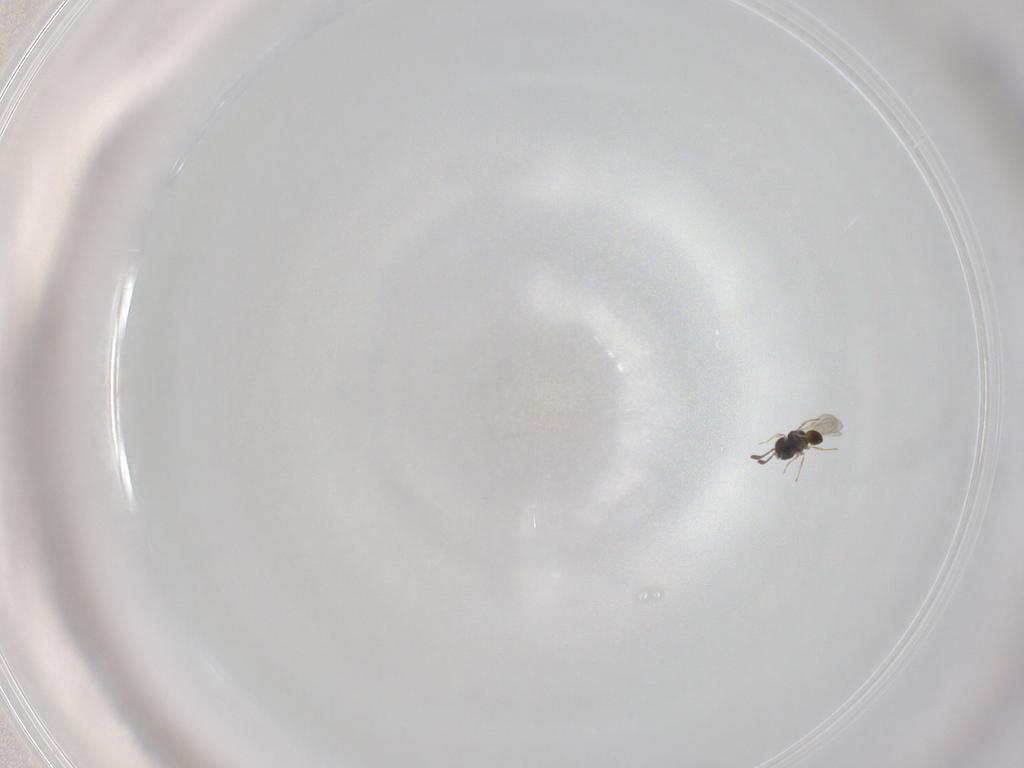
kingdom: Animalia
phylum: Arthropoda
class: Insecta
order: Hymenoptera
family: Scelionidae
